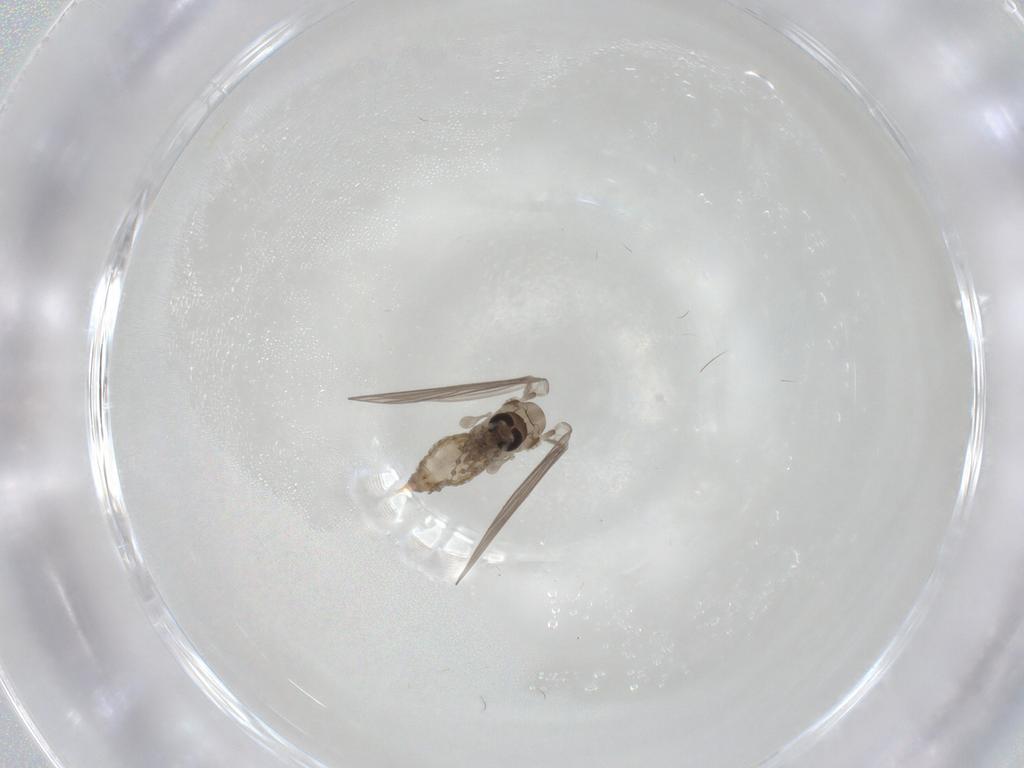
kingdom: Animalia
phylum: Arthropoda
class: Insecta
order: Diptera
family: Psychodidae
